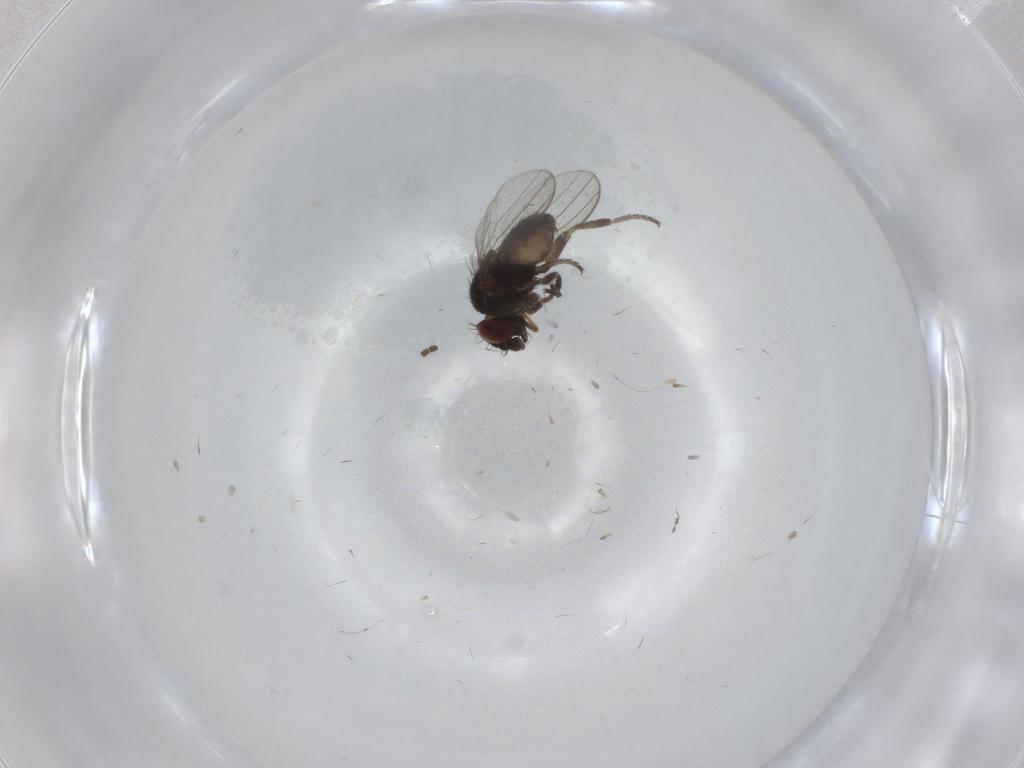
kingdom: Animalia
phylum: Arthropoda
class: Insecta
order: Diptera
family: Milichiidae
